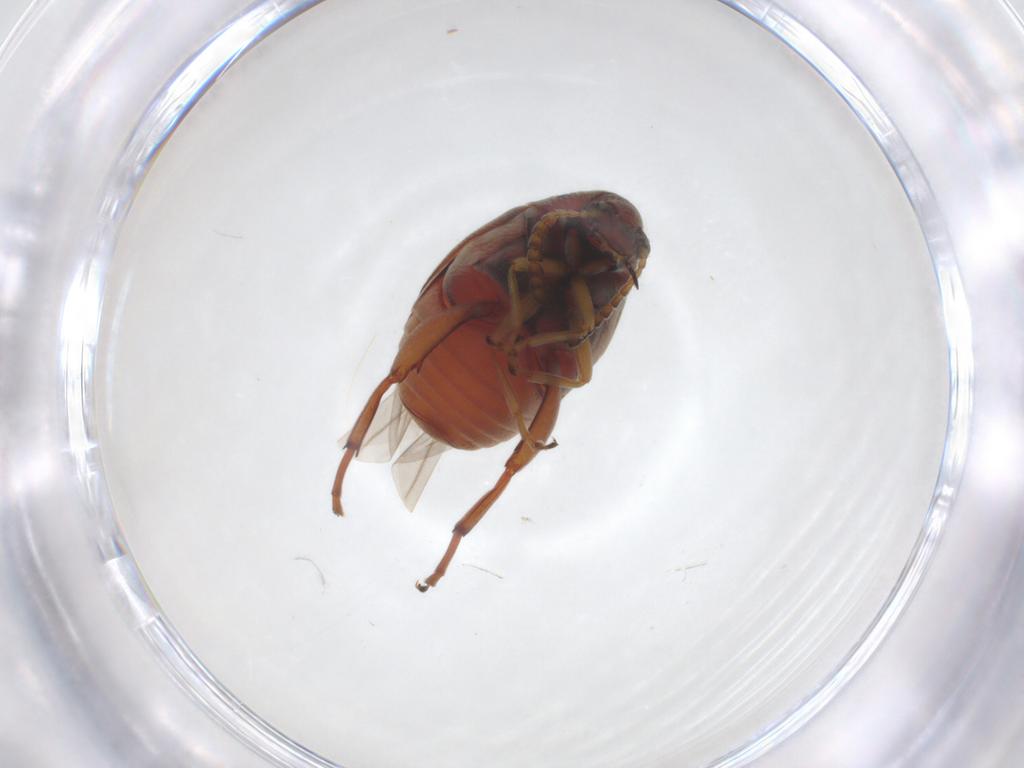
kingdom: Animalia
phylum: Arthropoda
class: Insecta
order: Coleoptera
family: Chrysomelidae
